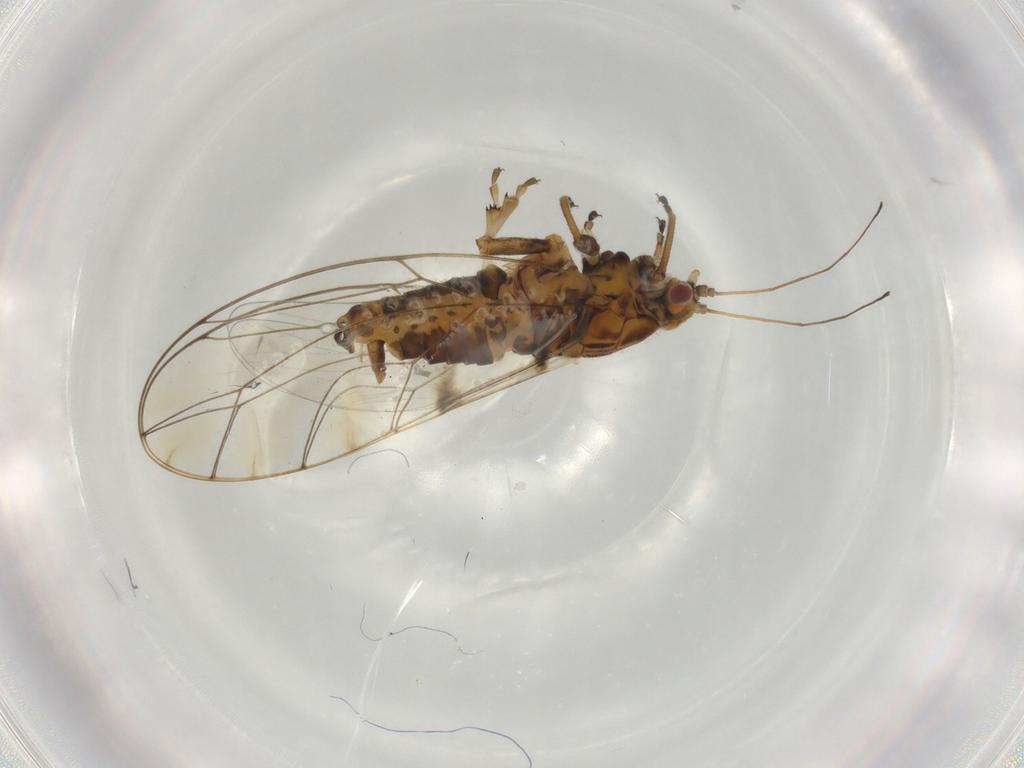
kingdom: Animalia
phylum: Arthropoda
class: Insecta
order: Hemiptera
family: Triozidae
